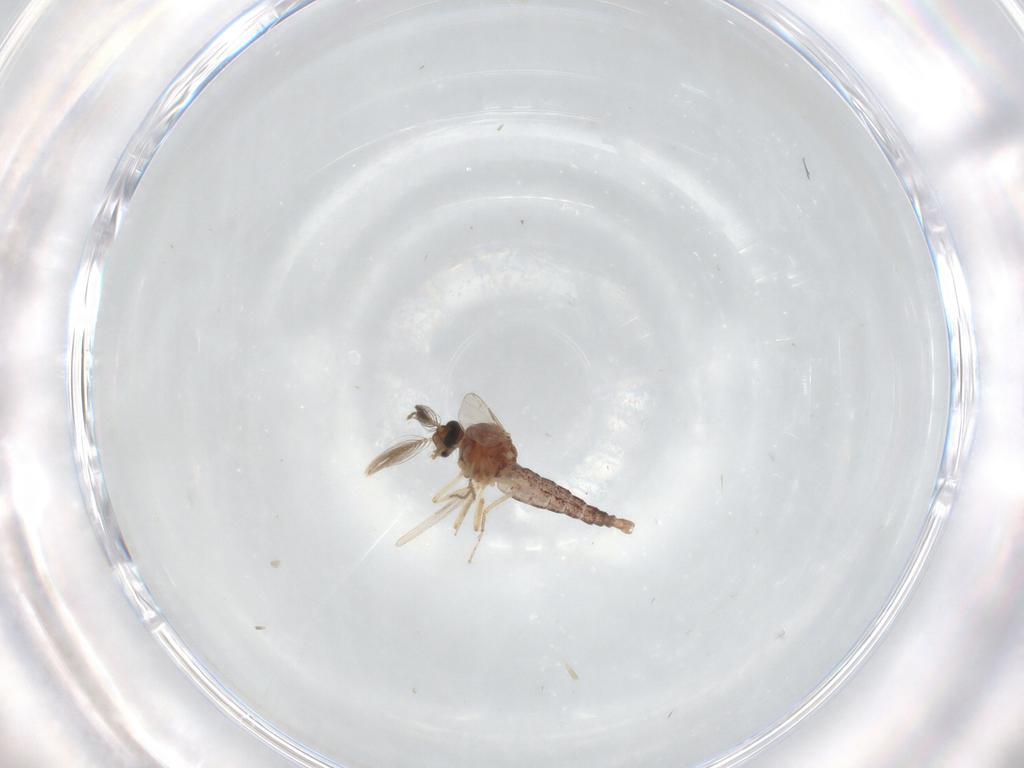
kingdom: Animalia
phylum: Arthropoda
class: Insecta
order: Diptera
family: Ceratopogonidae
